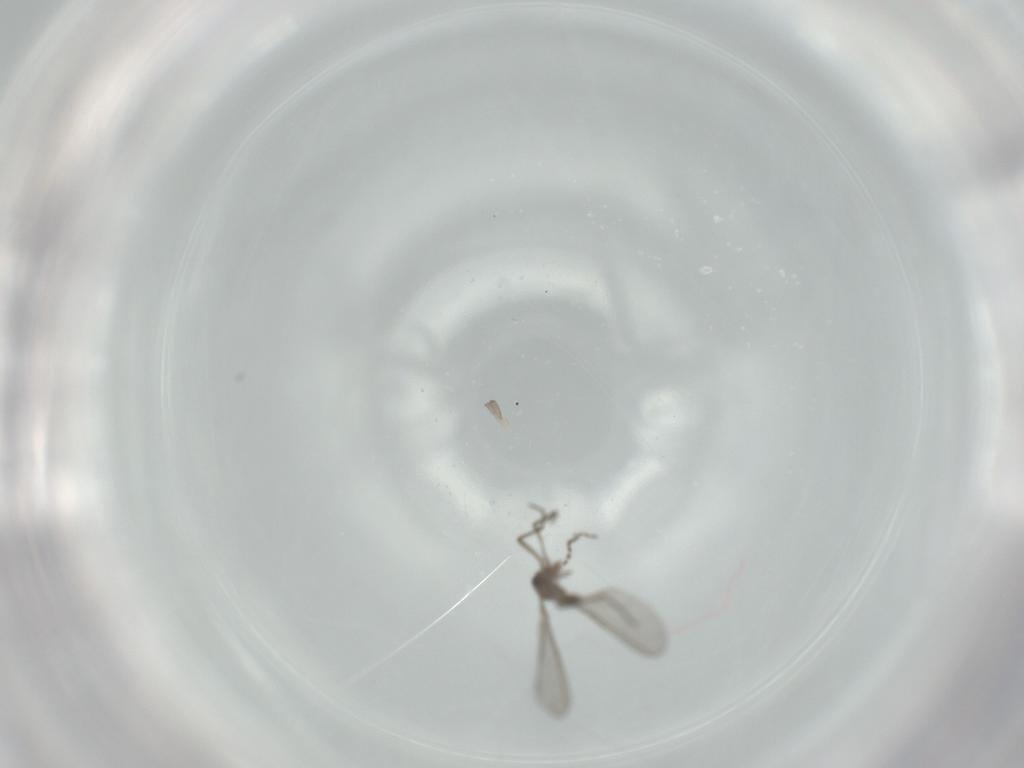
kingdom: Animalia
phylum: Arthropoda
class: Insecta
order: Diptera
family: Sciaridae
